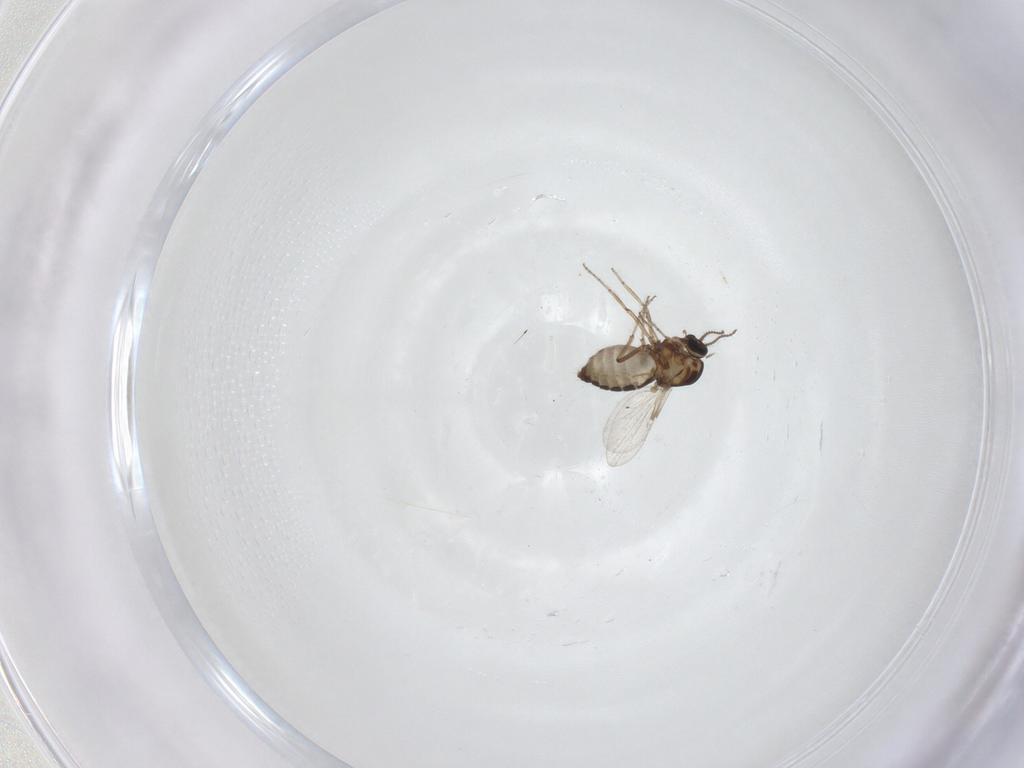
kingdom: Animalia
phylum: Arthropoda
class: Insecta
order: Diptera
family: Ceratopogonidae
